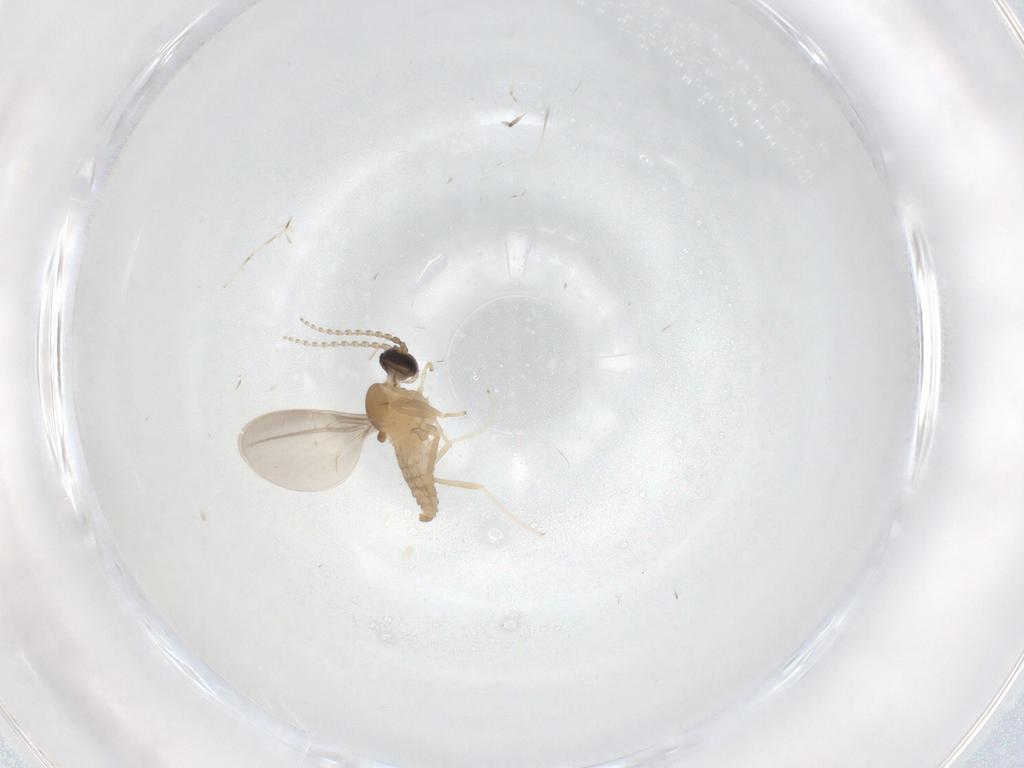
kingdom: Animalia
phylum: Arthropoda
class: Insecta
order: Diptera
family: Cecidomyiidae
